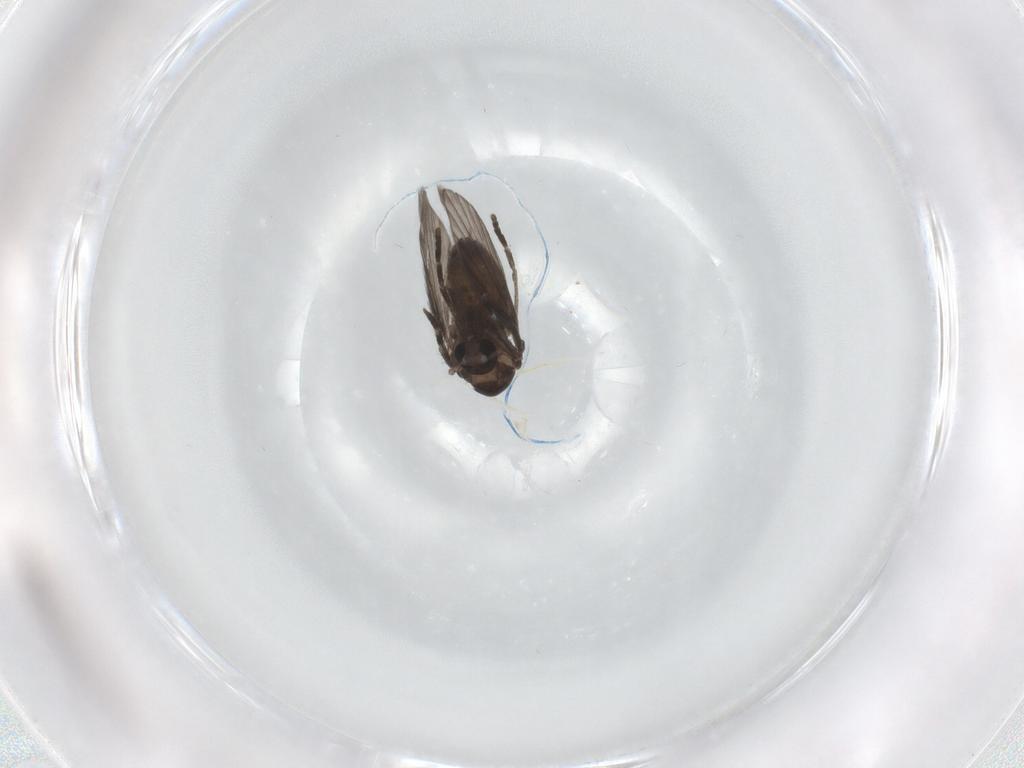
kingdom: Animalia
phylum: Arthropoda
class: Insecta
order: Diptera
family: Psychodidae
